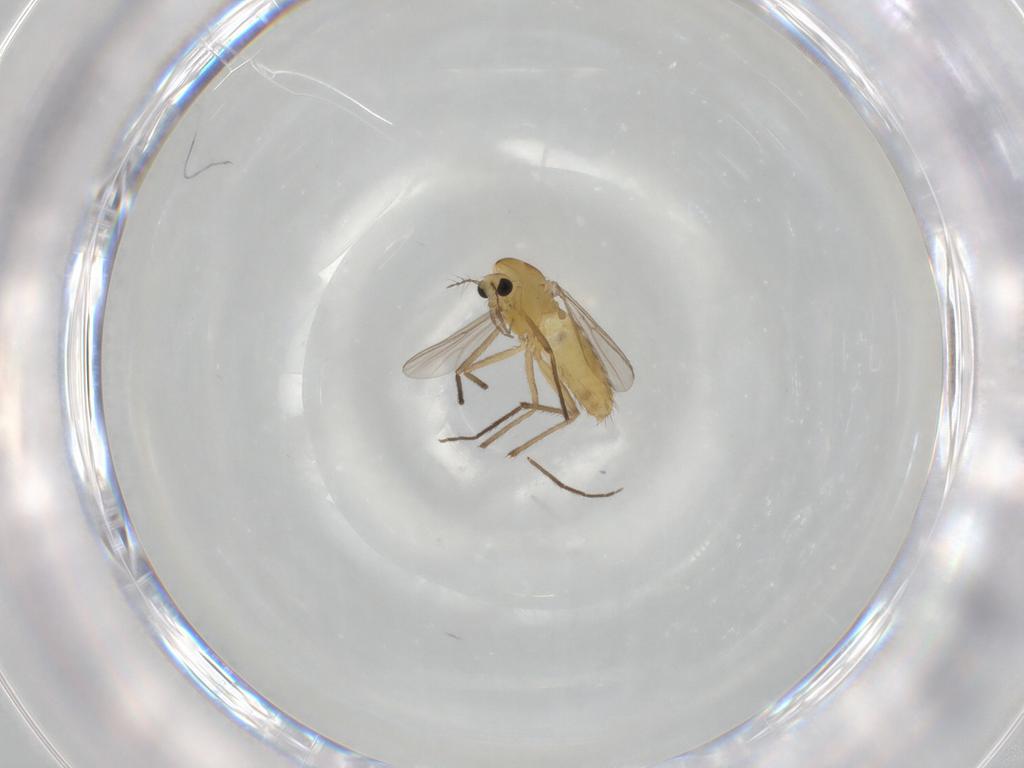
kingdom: Animalia
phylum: Arthropoda
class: Insecta
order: Diptera
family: Chironomidae
